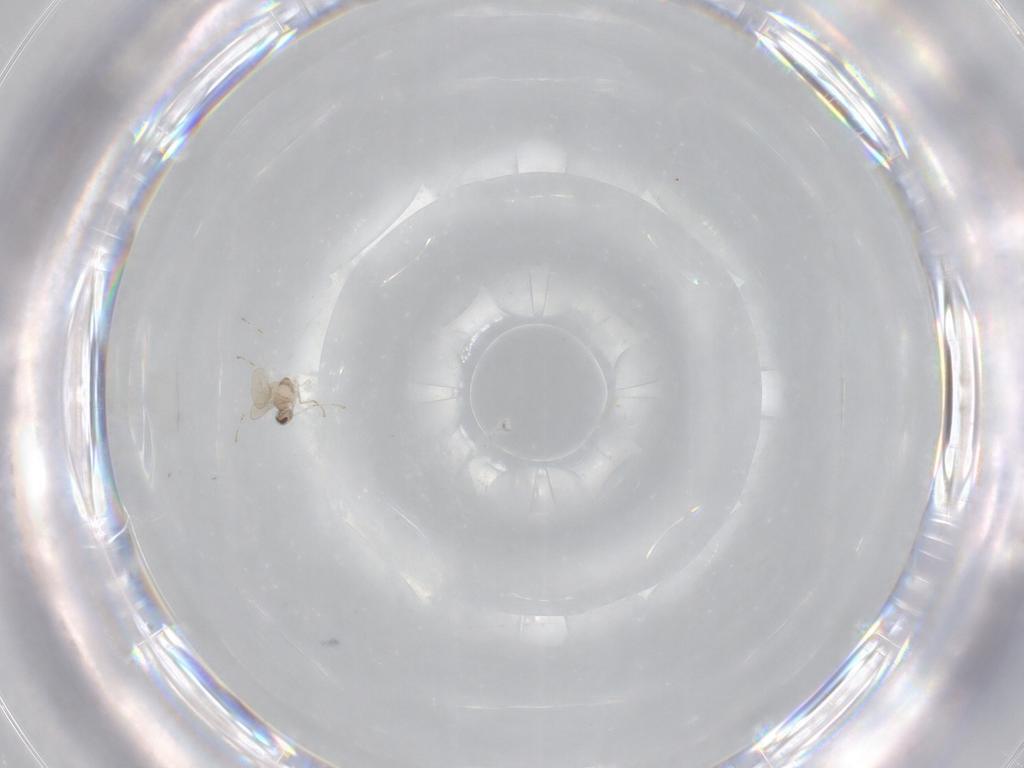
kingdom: Animalia
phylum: Arthropoda
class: Insecta
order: Diptera
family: Cecidomyiidae
